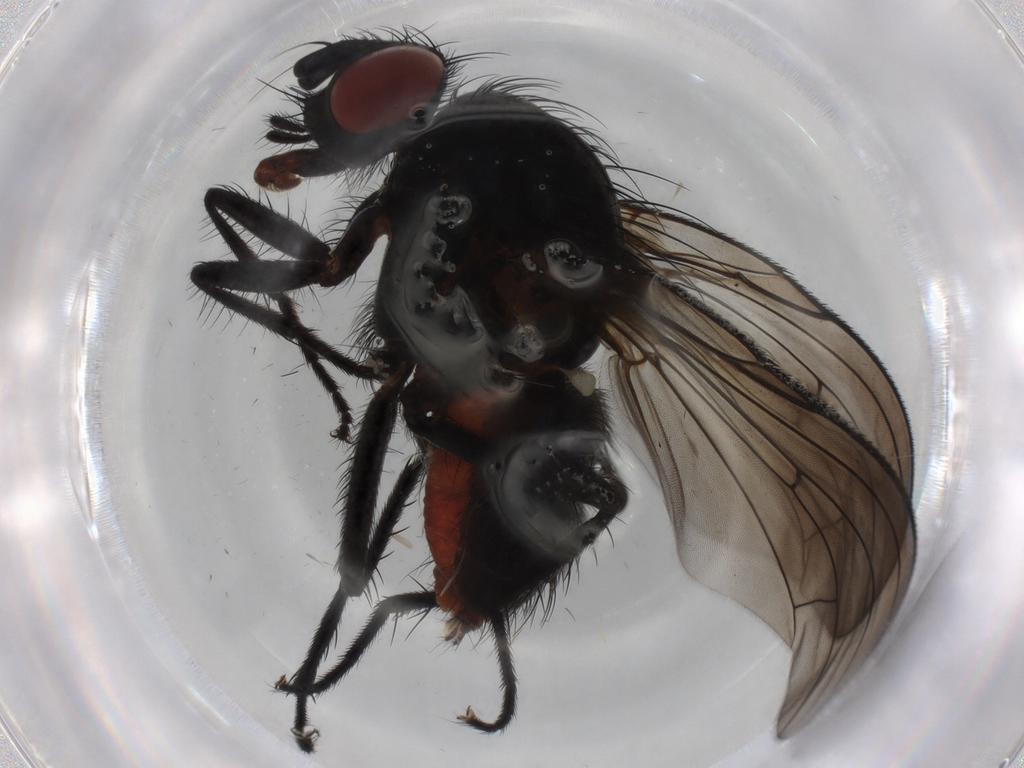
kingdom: Animalia
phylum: Arthropoda
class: Insecta
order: Diptera
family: Anthomyiidae
